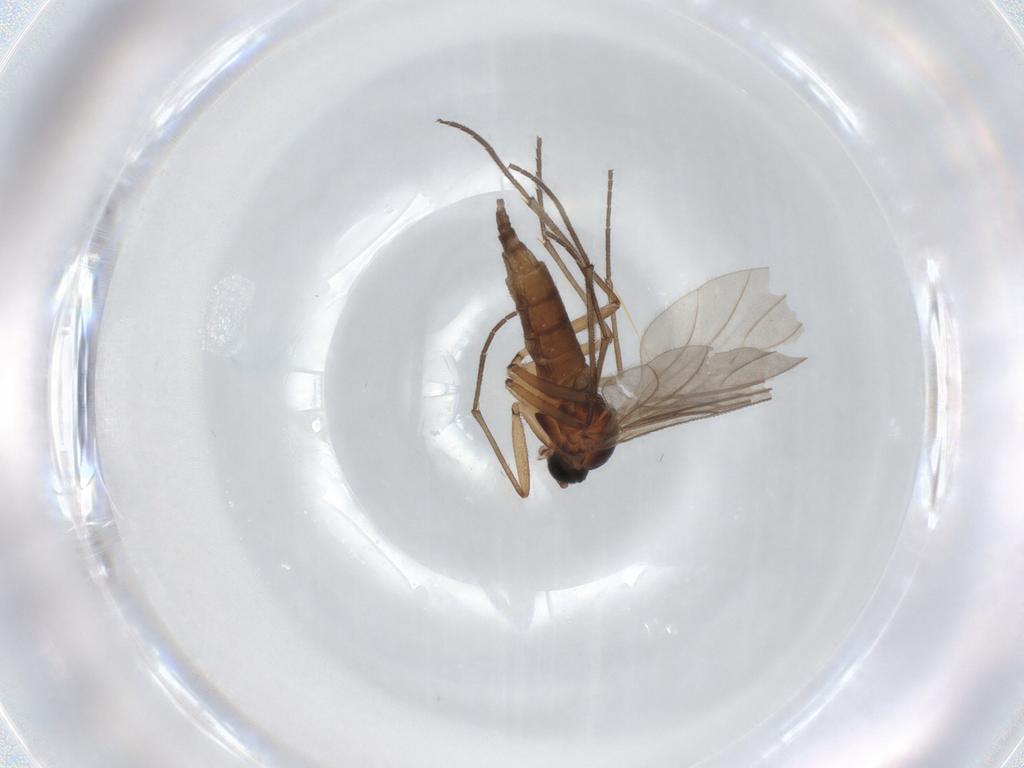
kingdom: Animalia
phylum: Arthropoda
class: Insecta
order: Diptera
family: Sciaridae
